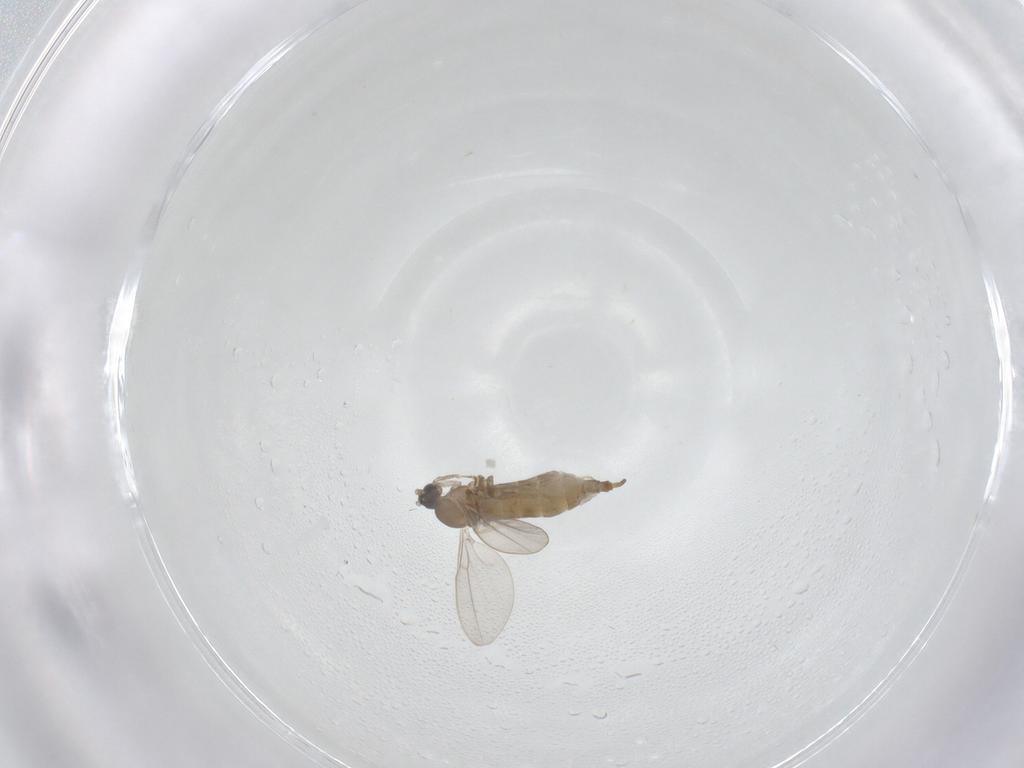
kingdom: Animalia
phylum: Arthropoda
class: Insecta
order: Diptera
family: Cecidomyiidae
